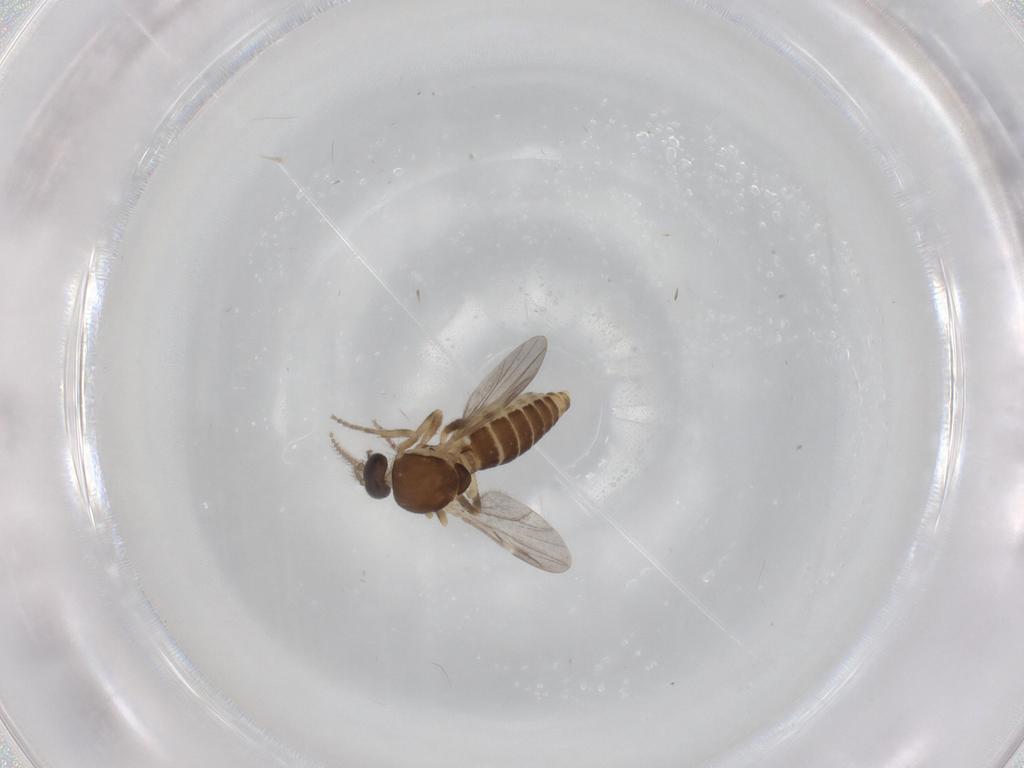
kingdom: Animalia
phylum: Arthropoda
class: Insecta
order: Diptera
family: Ceratopogonidae
